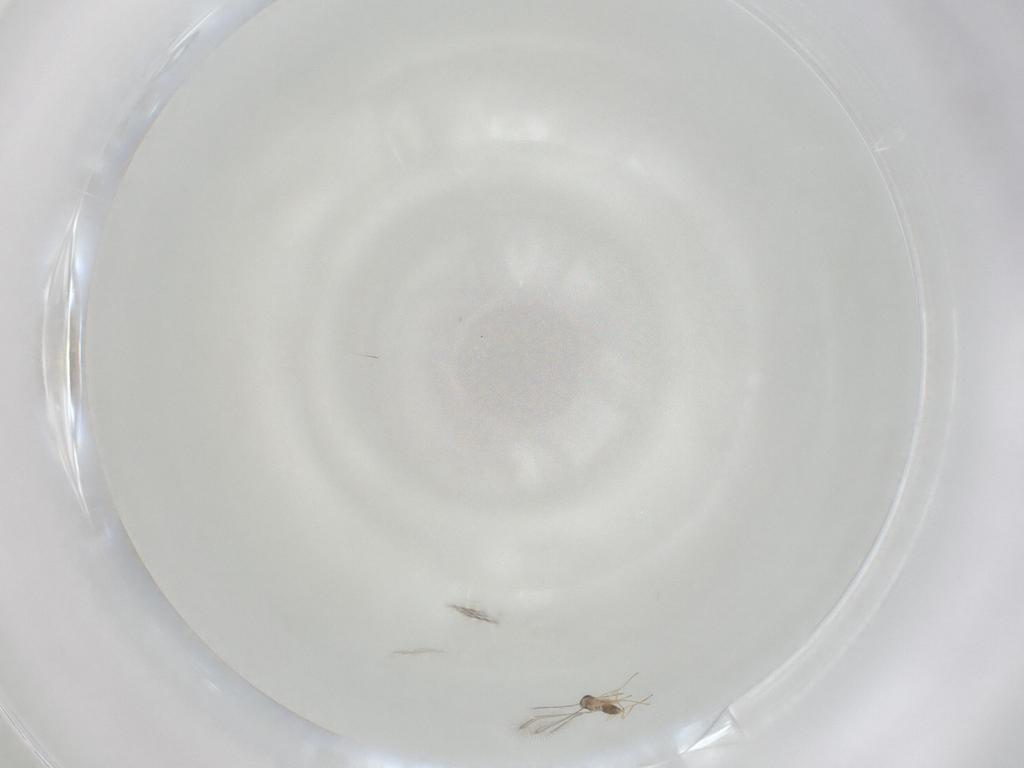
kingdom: Animalia
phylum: Arthropoda
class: Insecta
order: Hymenoptera
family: Mymaridae
